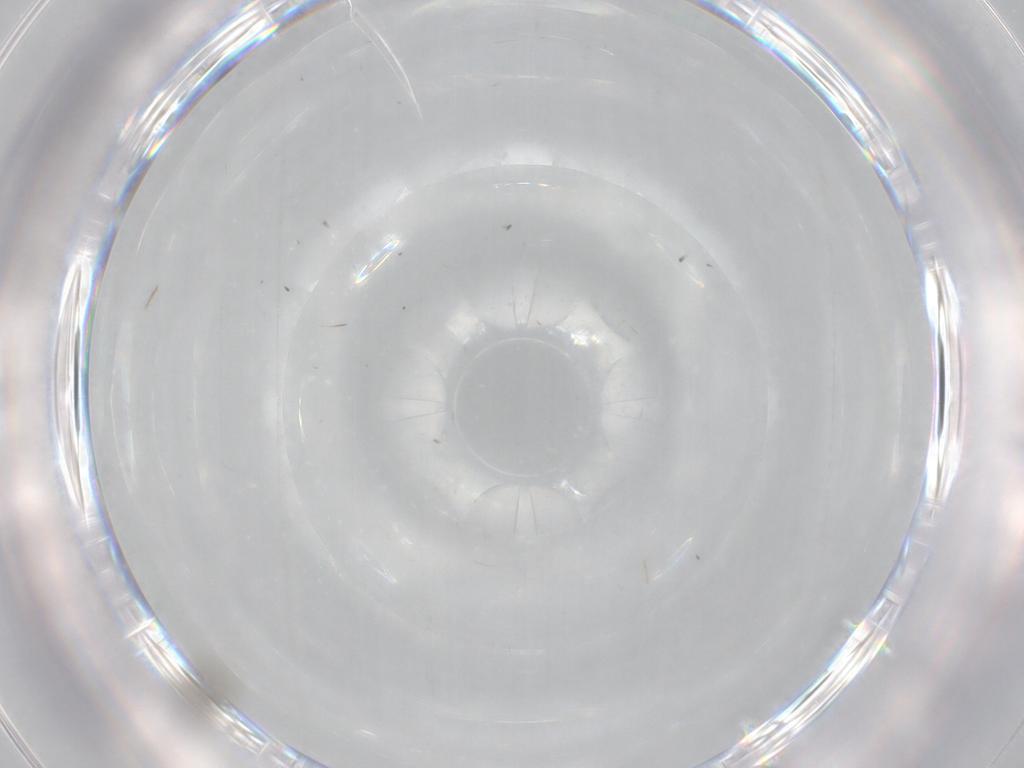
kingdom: Animalia
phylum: Arthropoda
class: Insecta
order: Diptera
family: Cecidomyiidae
